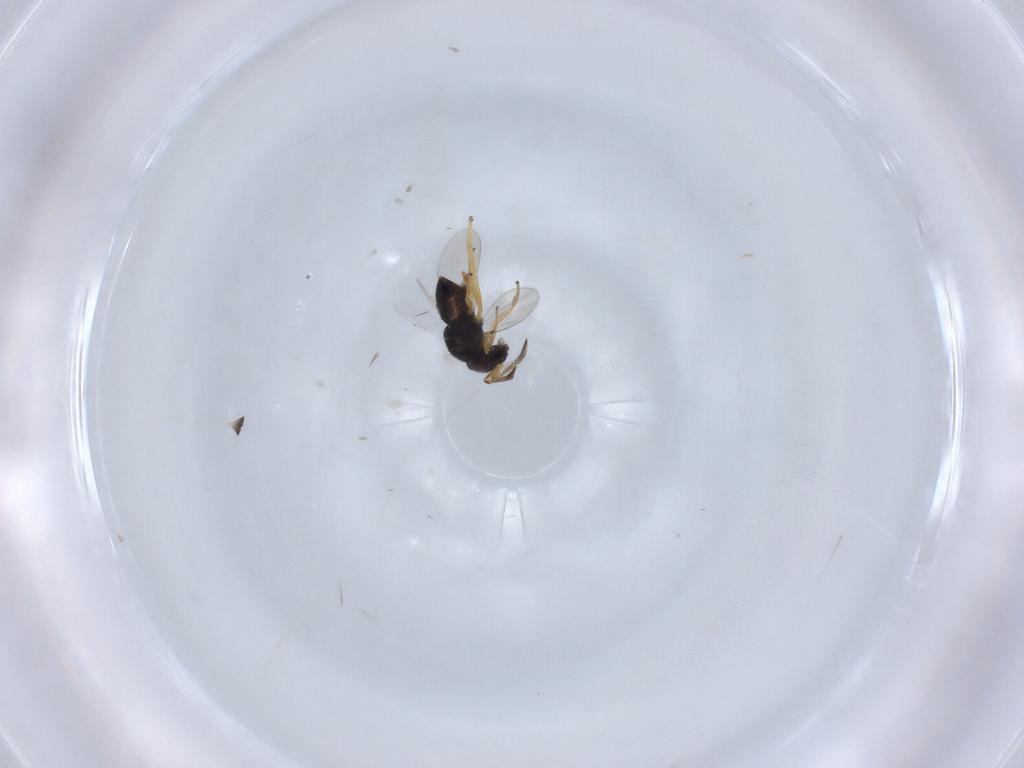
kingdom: Animalia
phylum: Arthropoda
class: Insecta
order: Hymenoptera
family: Encyrtidae
